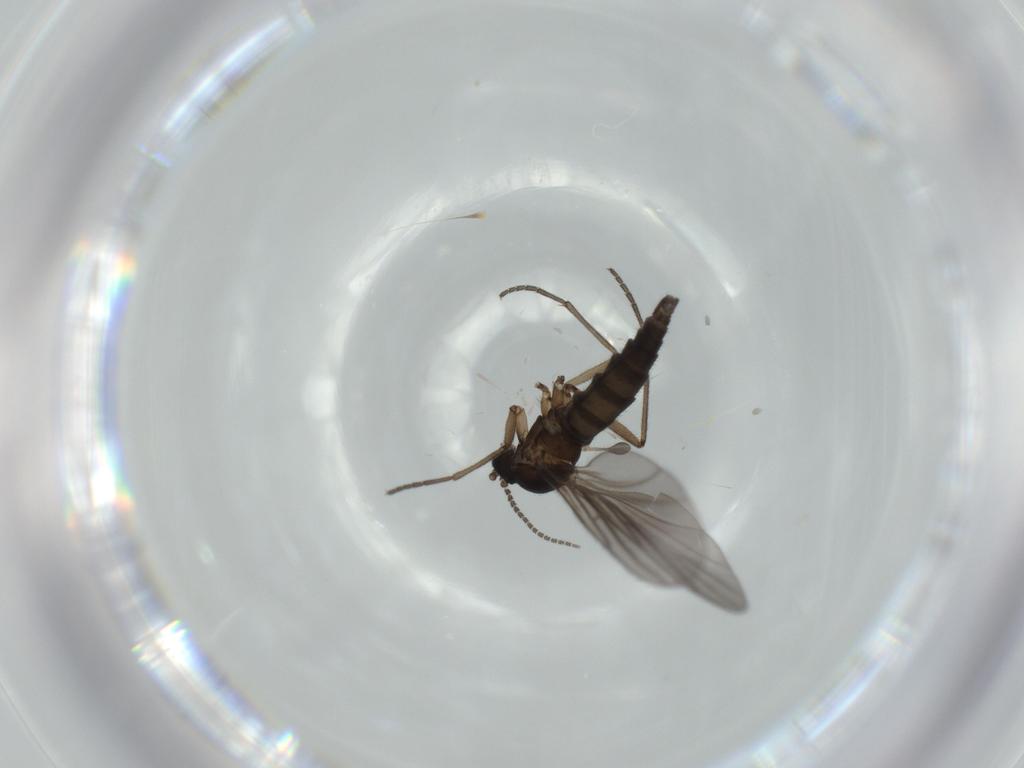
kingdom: Animalia
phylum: Arthropoda
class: Insecta
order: Diptera
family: Sciaridae
